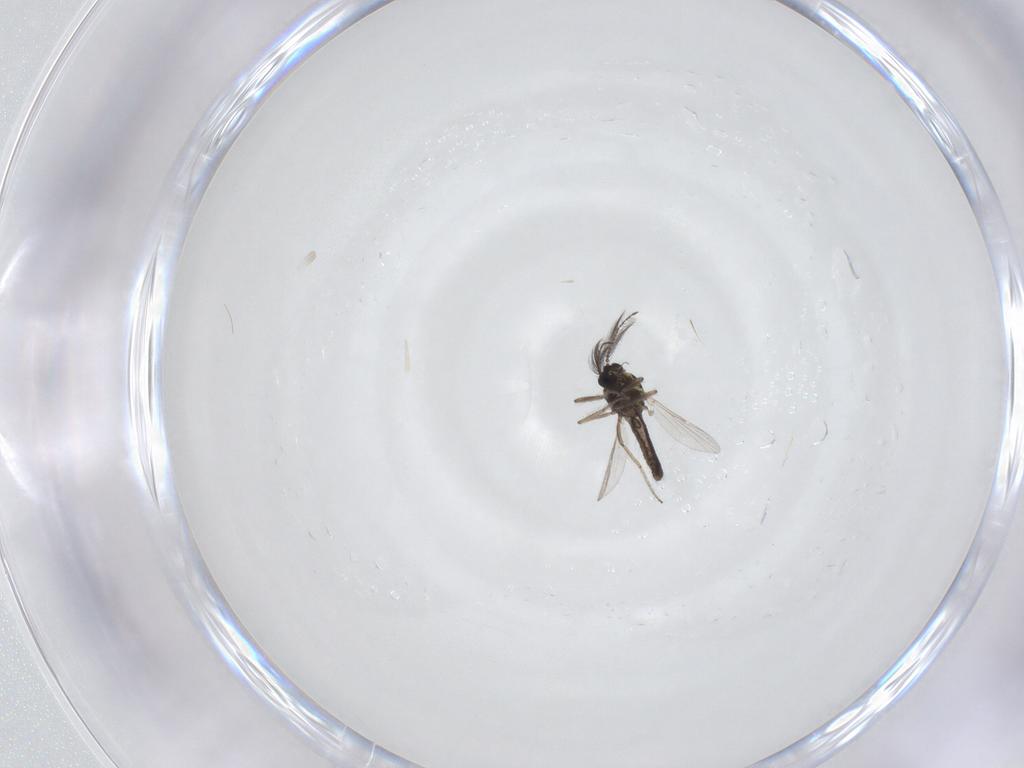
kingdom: Animalia
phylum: Arthropoda
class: Insecta
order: Diptera
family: Ceratopogonidae
